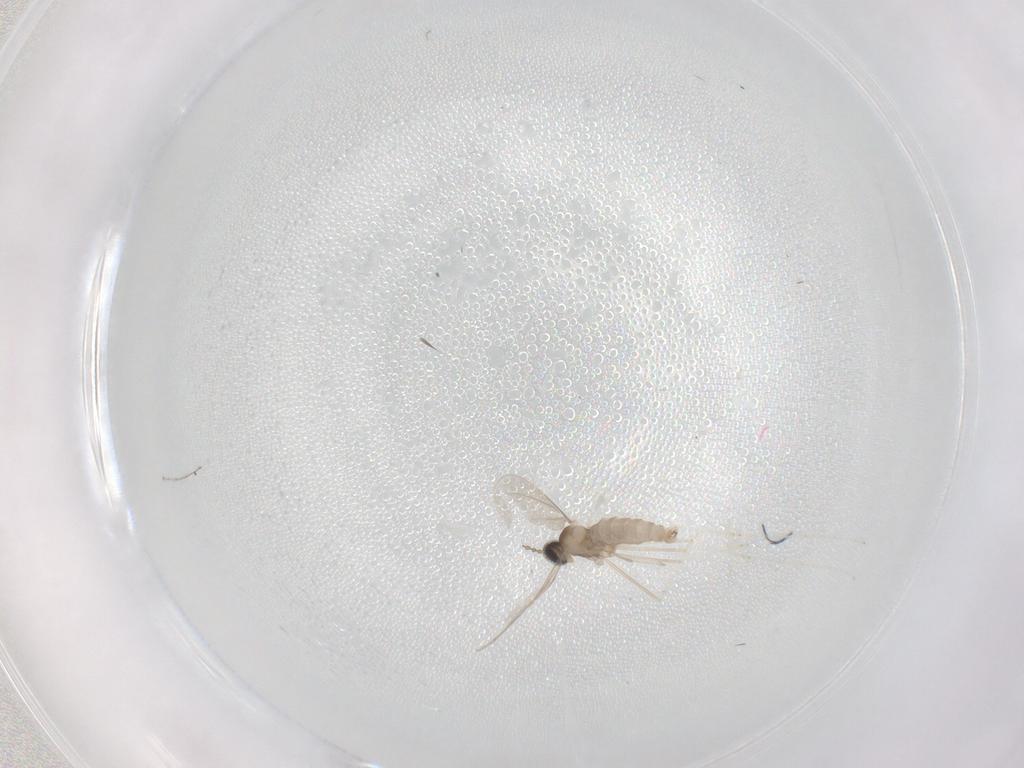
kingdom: Animalia
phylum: Arthropoda
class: Insecta
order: Diptera
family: Cecidomyiidae
